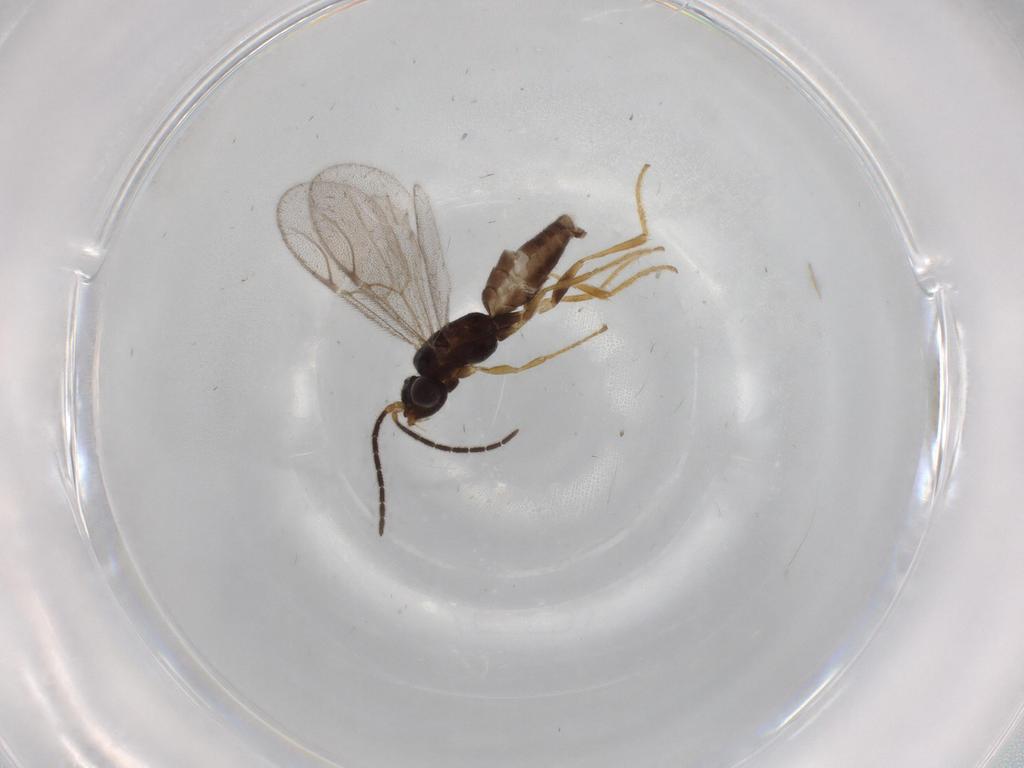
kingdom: Animalia
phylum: Arthropoda
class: Insecta
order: Hymenoptera
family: Dryinidae
